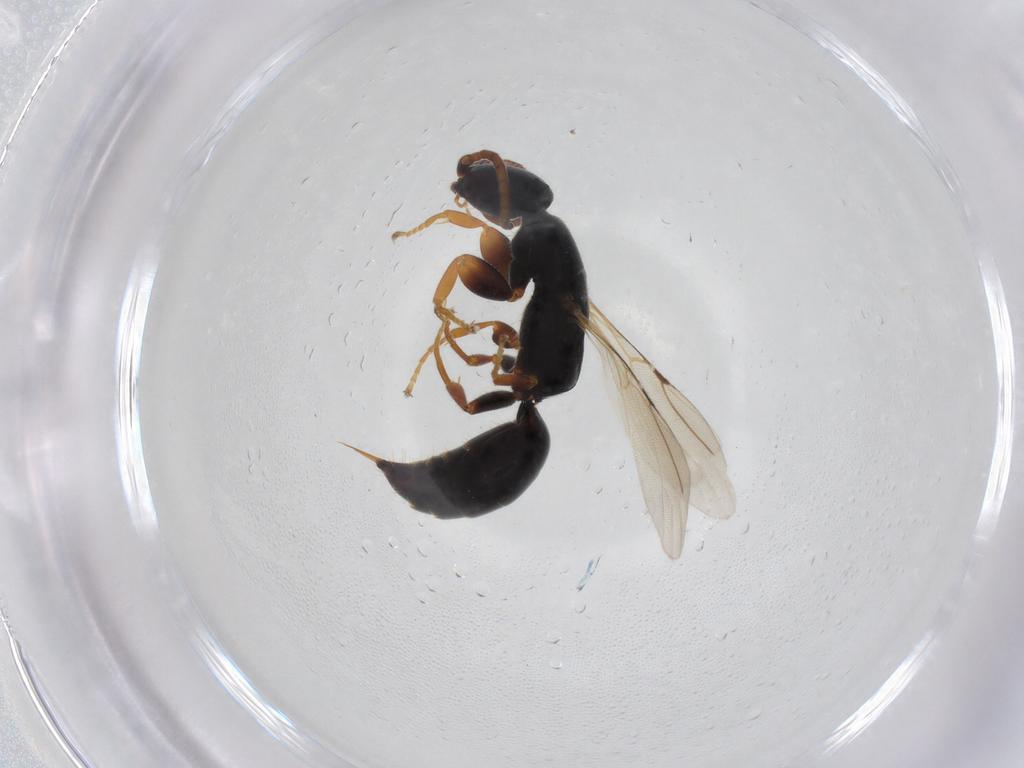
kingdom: Animalia
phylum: Arthropoda
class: Insecta
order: Hymenoptera
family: Bethylidae
